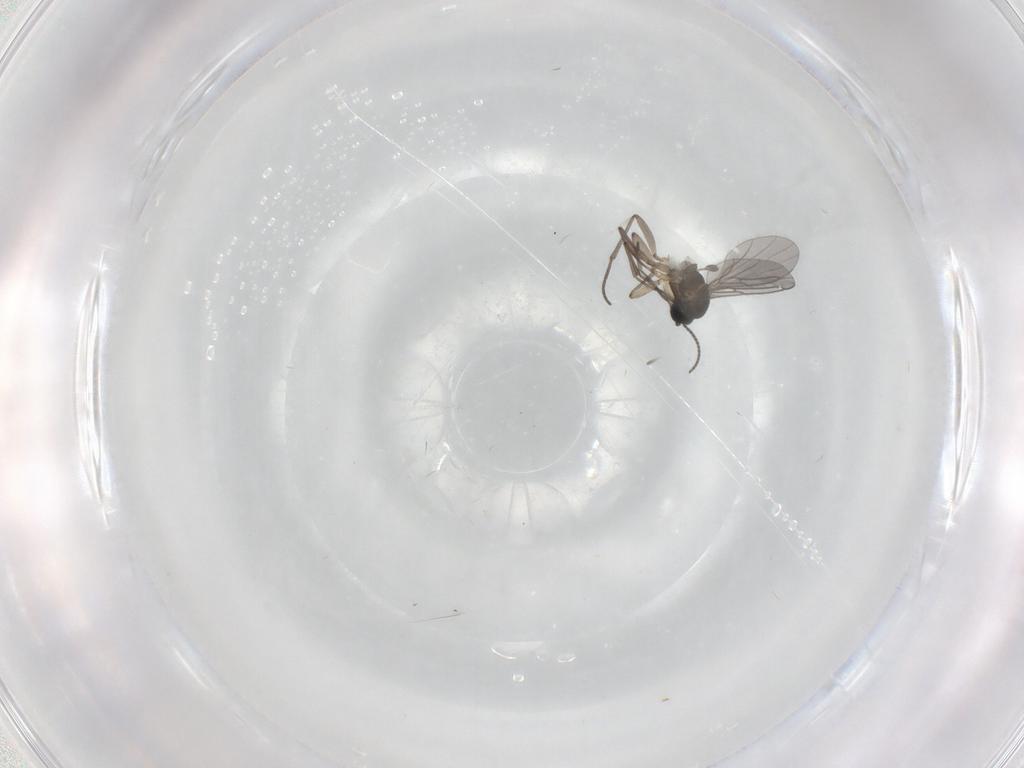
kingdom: Animalia
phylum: Arthropoda
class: Insecta
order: Diptera
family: Sciaridae
